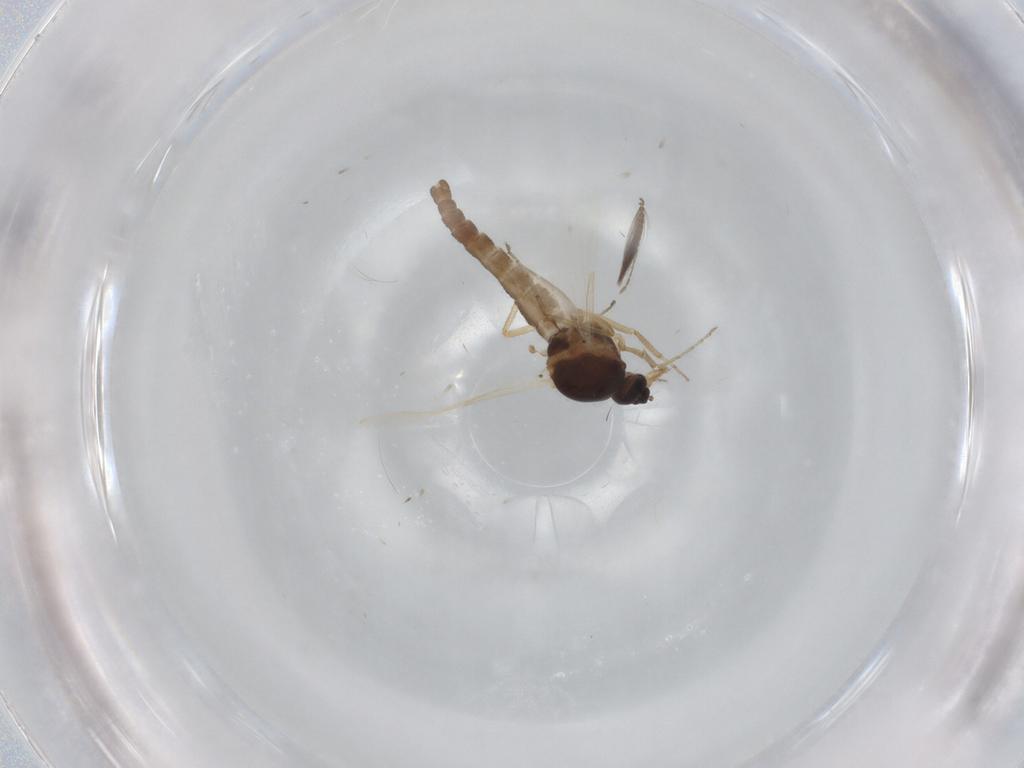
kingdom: Animalia
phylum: Arthropoda
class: Insecta
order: Diptera
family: Ceratopogonidae
